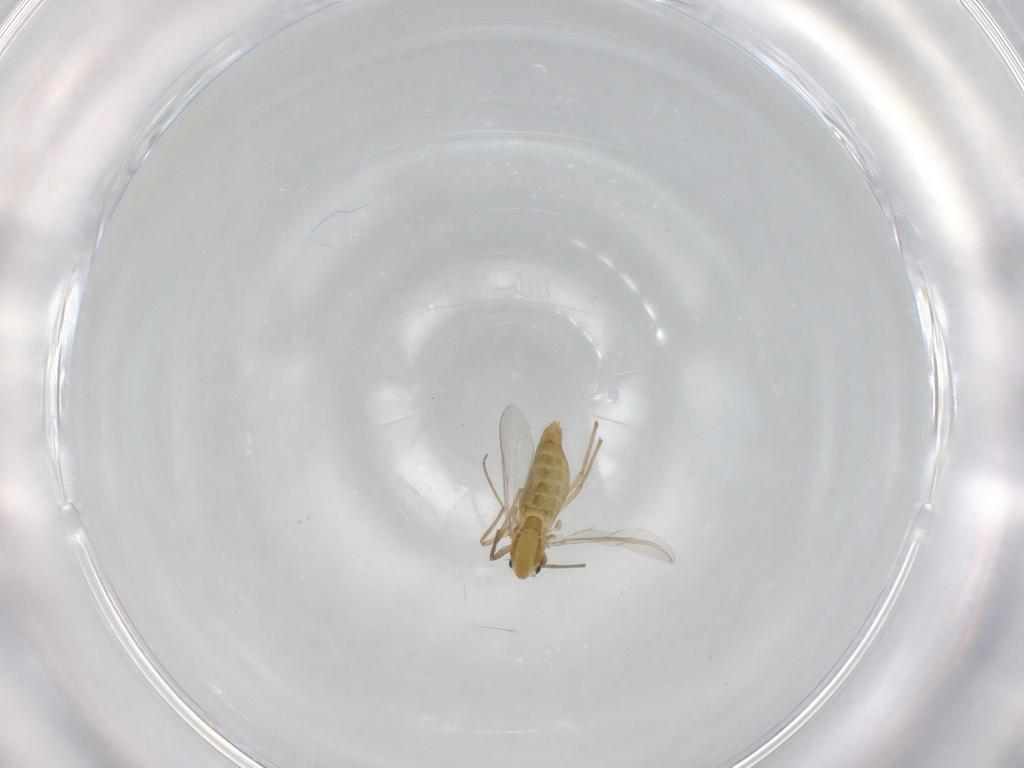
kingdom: Animalia
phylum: Arthropoda
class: Insecta
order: Diptera
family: Chironomidae
